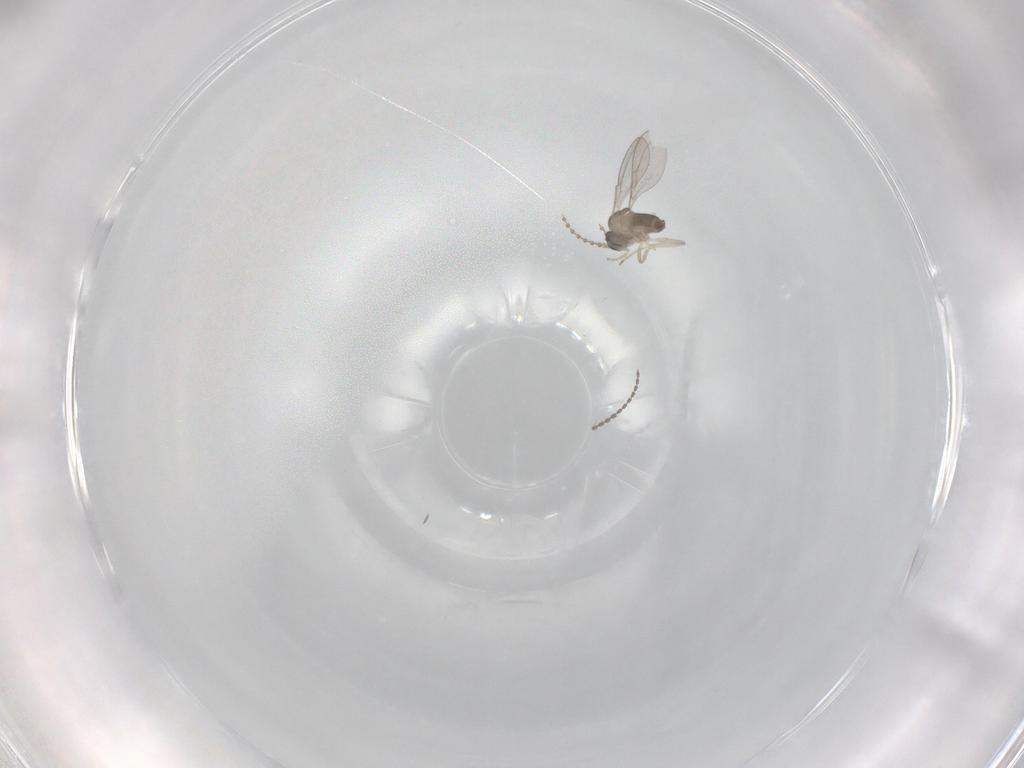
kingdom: Animalia
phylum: Arthropoda
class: Insecta
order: Diptera
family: Cecidomyiidae
